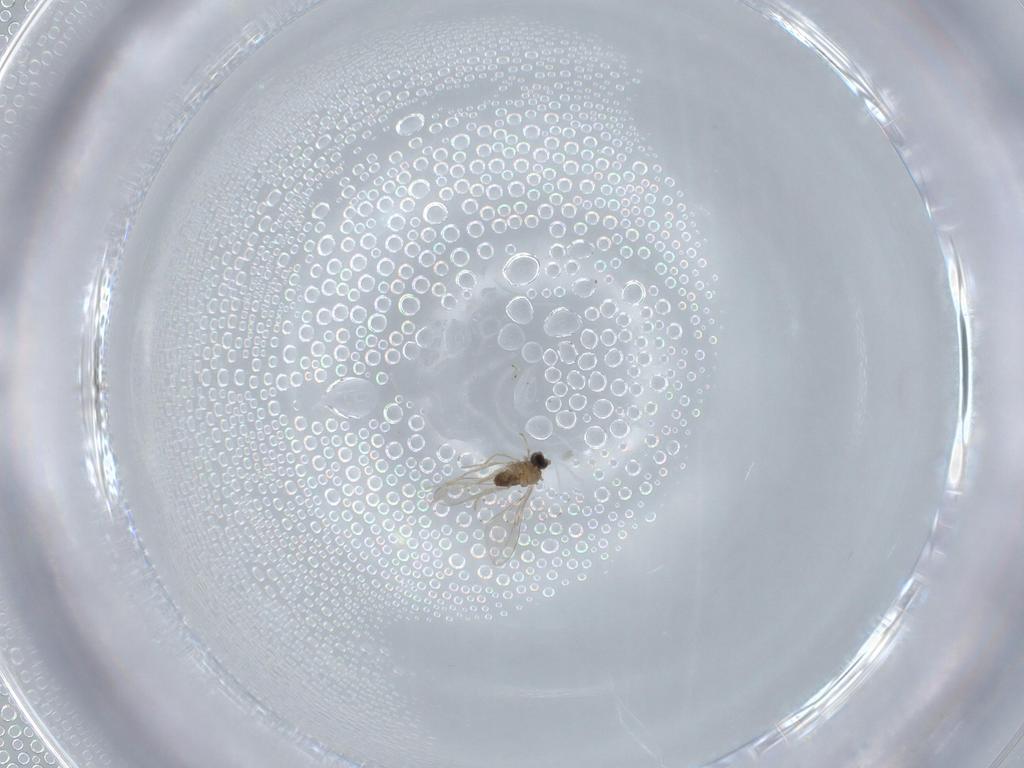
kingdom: Animalia
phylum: Arthropoda
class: Insecta
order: Diptera
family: Cecidomyiidae
